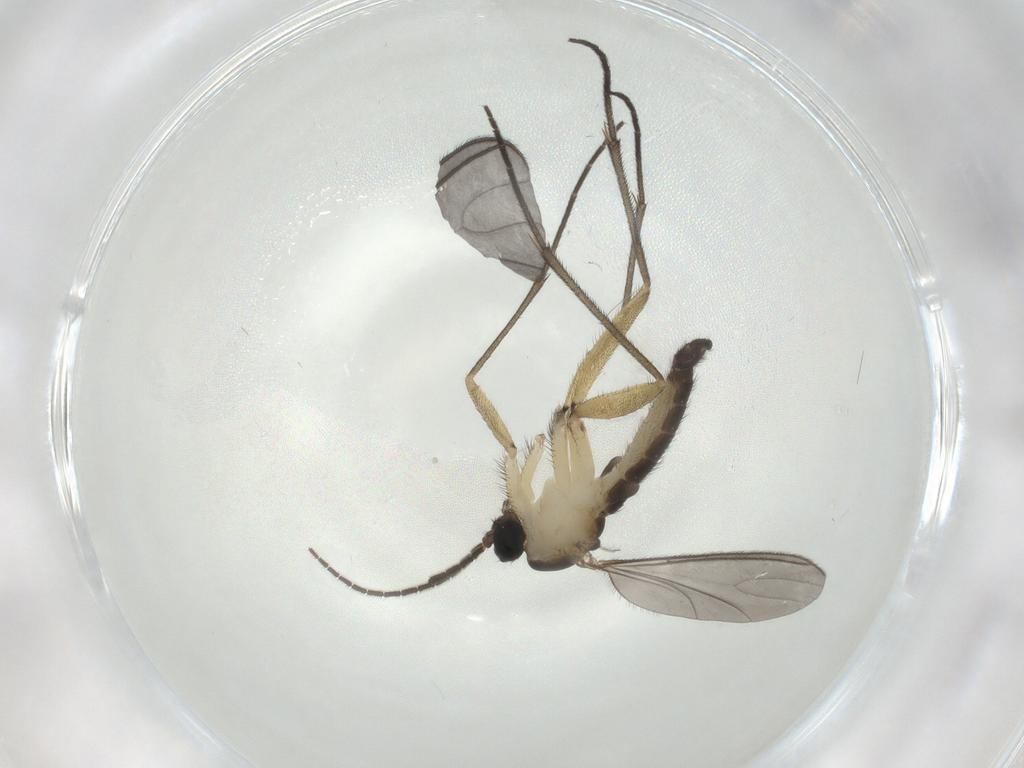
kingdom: Animalia
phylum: Arthropoda
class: Insecta
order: Diptera
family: Sciaridae
